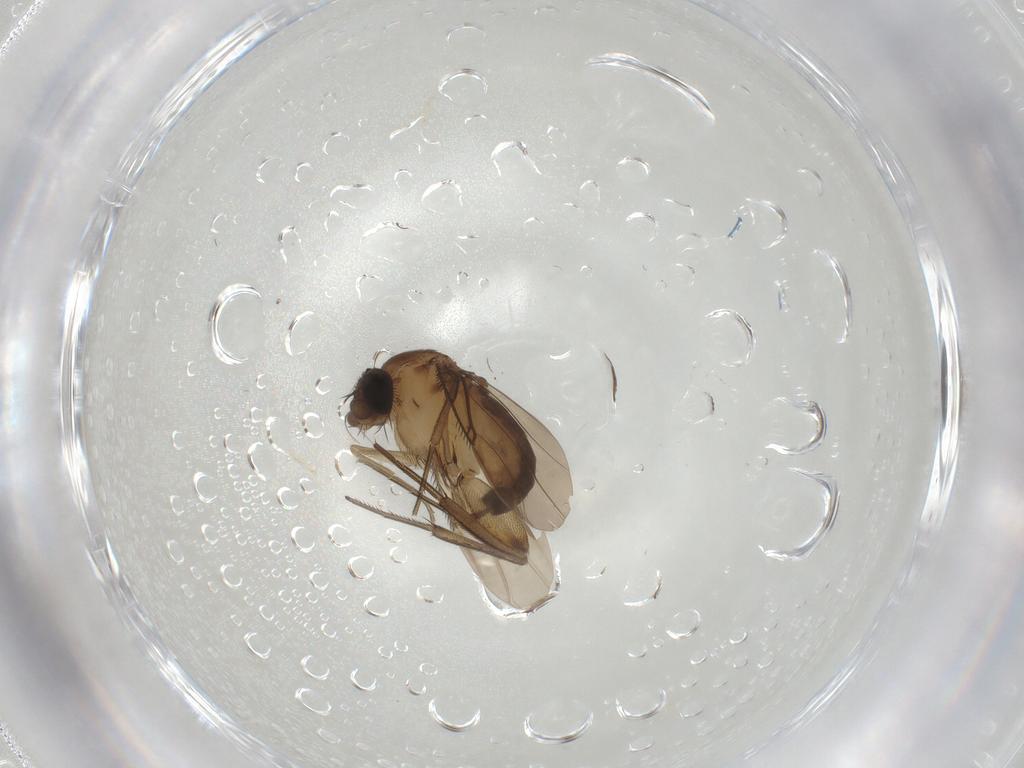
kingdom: Animalia
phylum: Arthropoda
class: Insecta
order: Diptera
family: Phoridae
